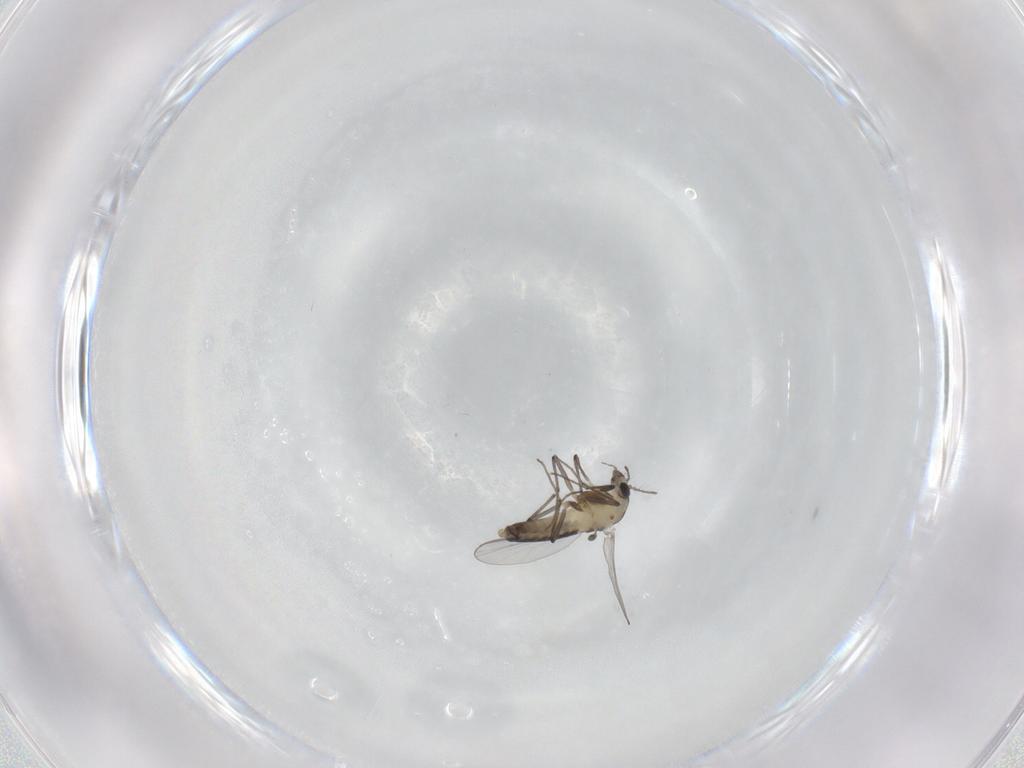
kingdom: Animalia
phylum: Arthropoda
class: Insecta
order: Diptera
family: Chironomidae
